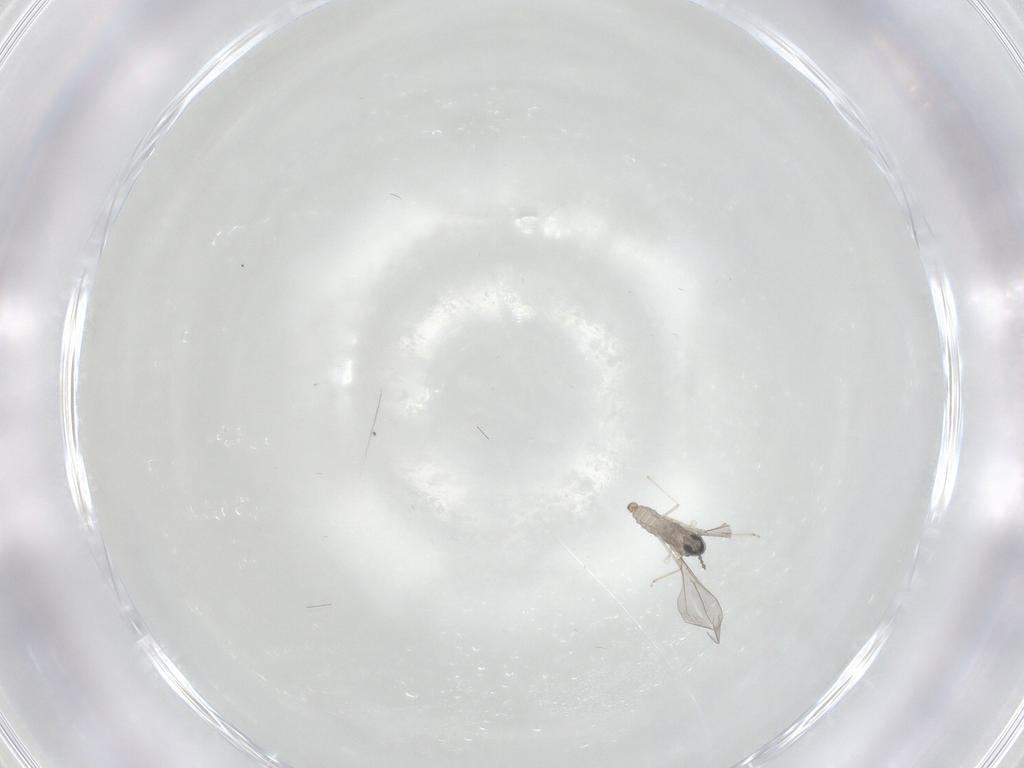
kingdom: Animalia
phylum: Arthropoda
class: Insecta
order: Diptera
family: Cecidomyiidae
